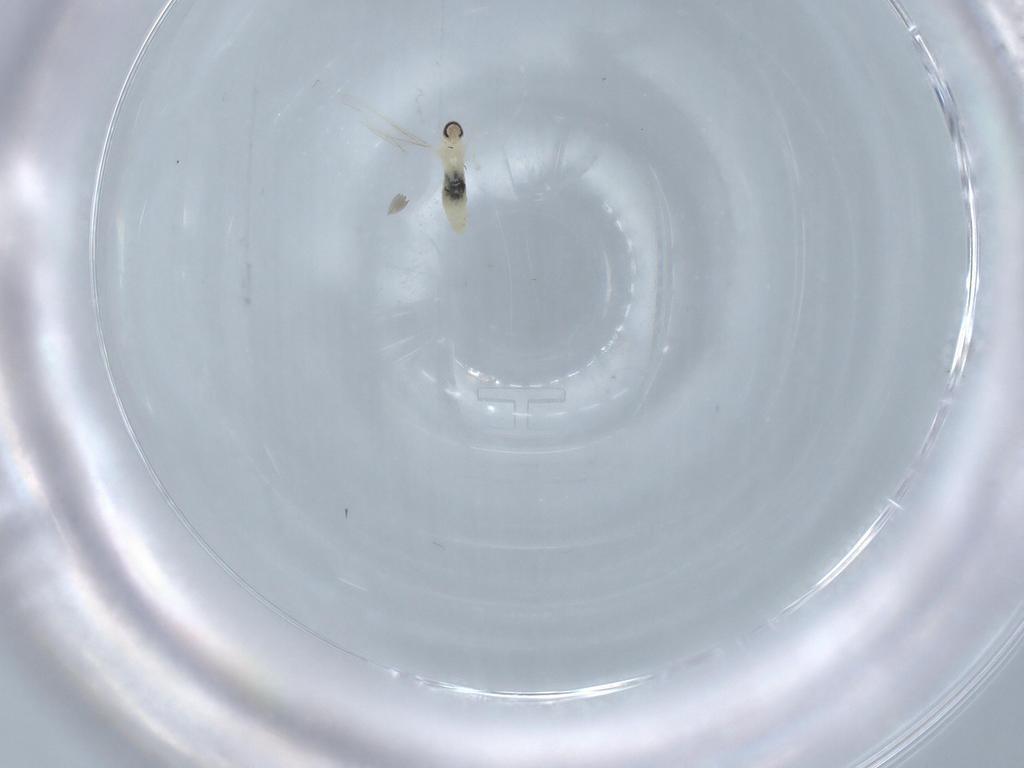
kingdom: Animalia
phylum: Arthropoda
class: Insecta
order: Diptera
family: Cecidomyiidae
